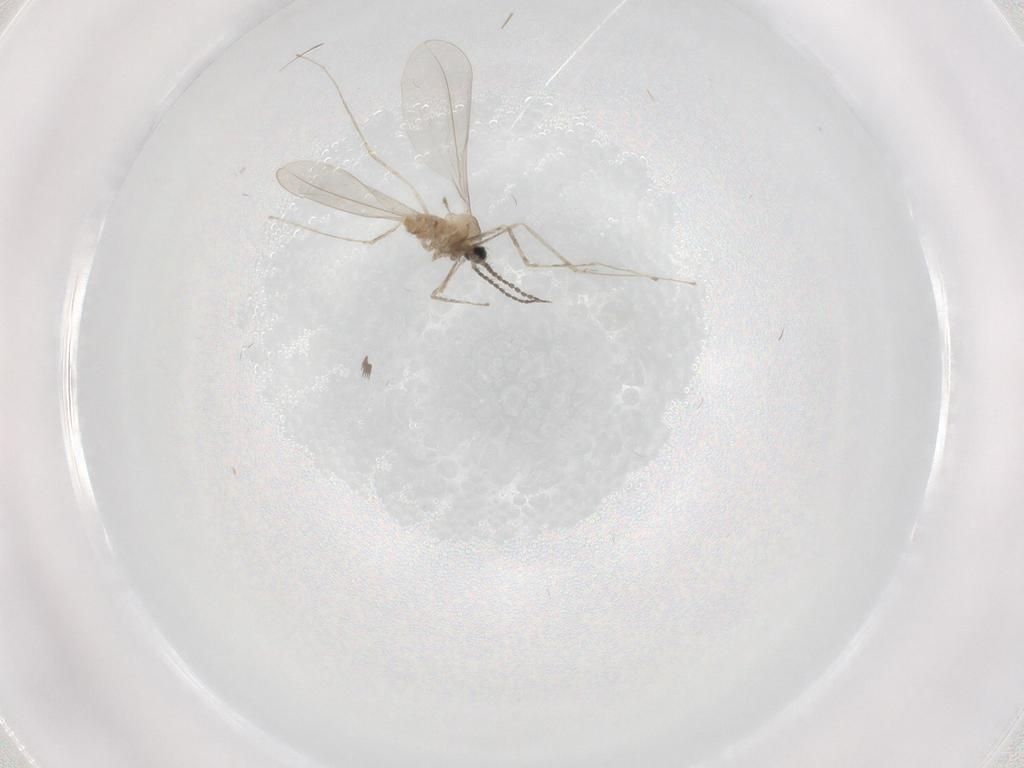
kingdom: Animalia
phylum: Arthropoda
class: Insecta
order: Diptera
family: Cecidomyiidae
